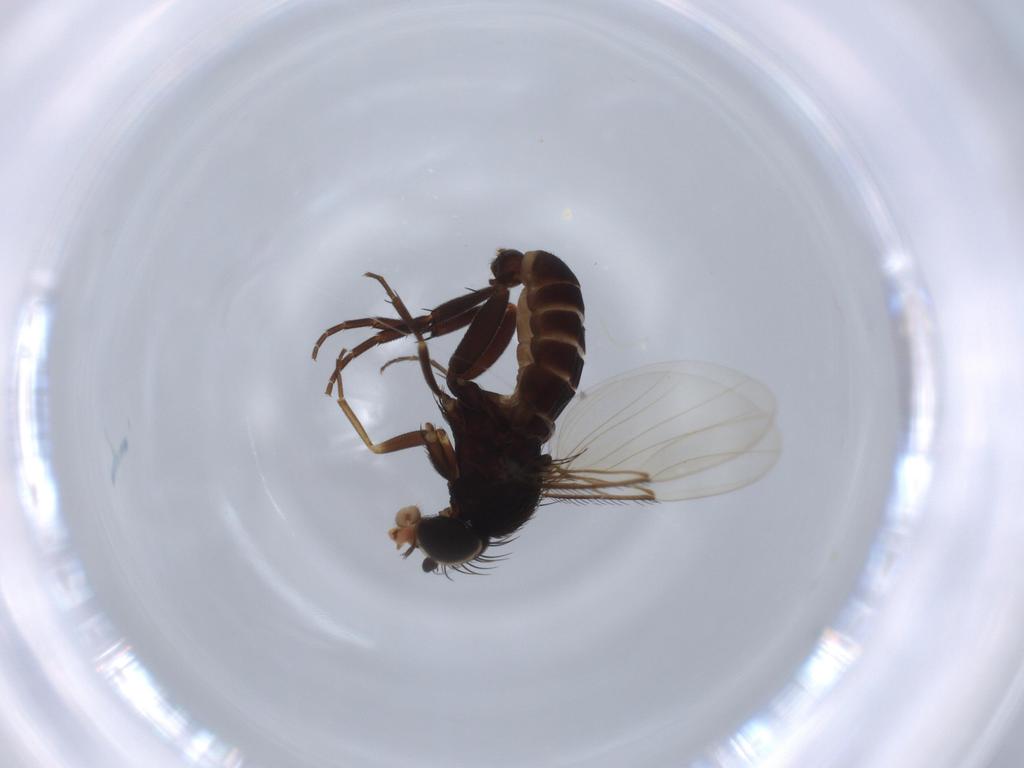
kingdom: Animalia
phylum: Arthropoda
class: Insecta
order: Diptera
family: Phoridae
